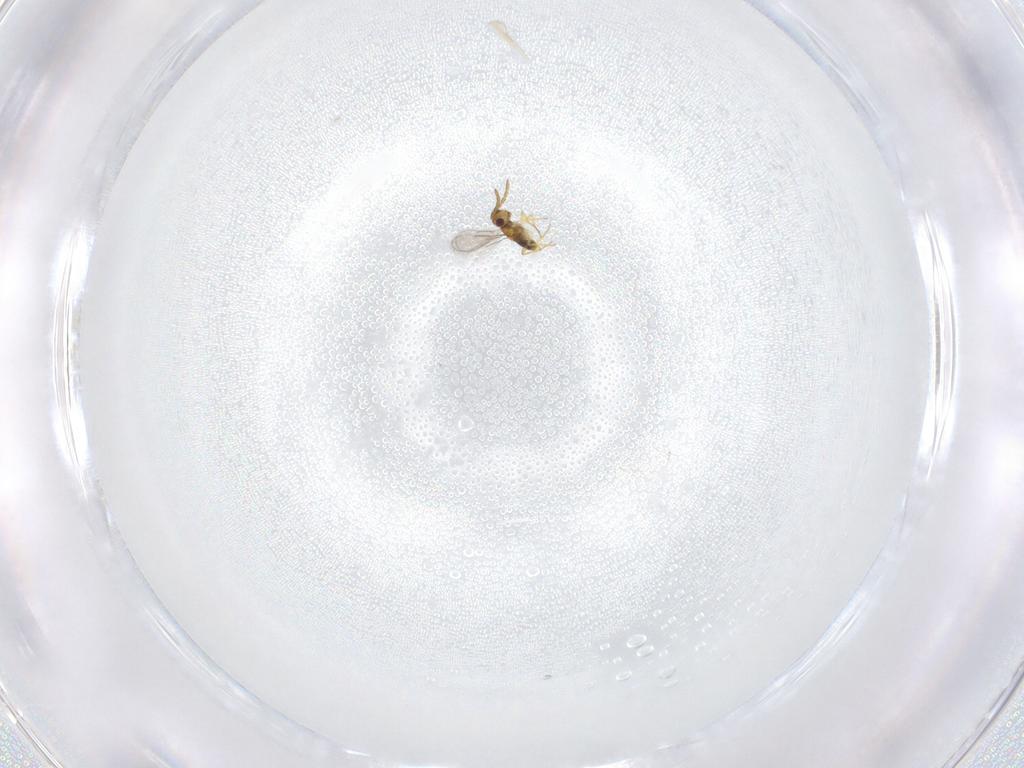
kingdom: Animalia
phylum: Arthropoda
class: Insecta
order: Hymenoptera
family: Aphelinidae
